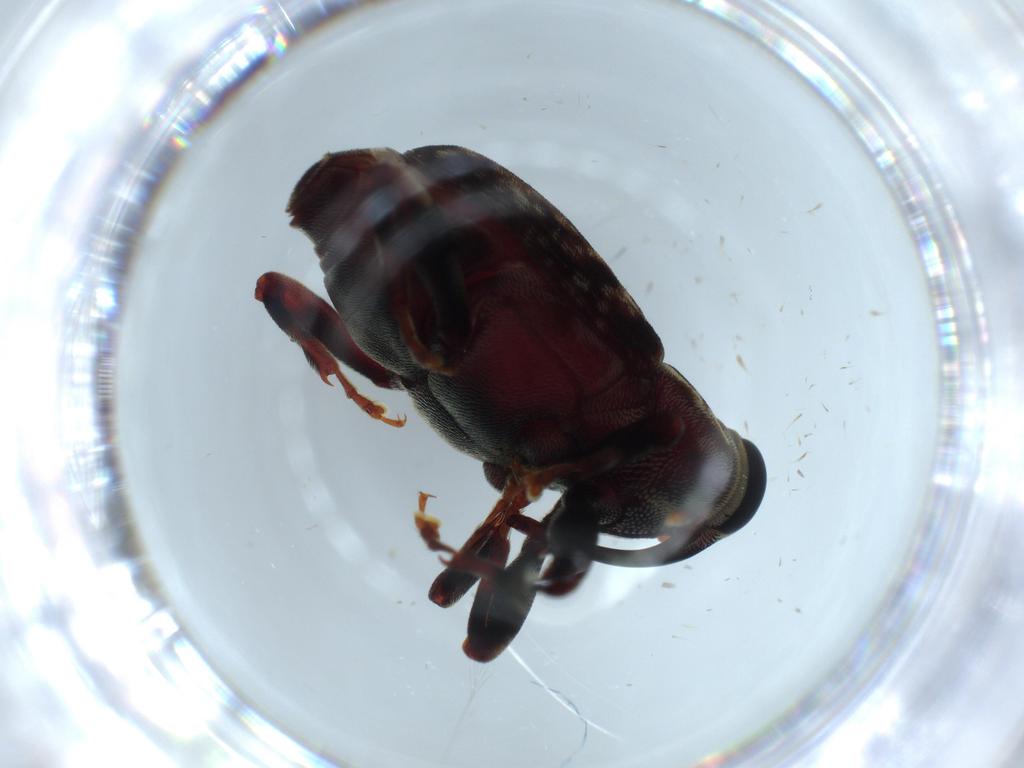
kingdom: Animalia
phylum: Arthropoda
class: Insecta
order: Coleoptera
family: Curculionidae
